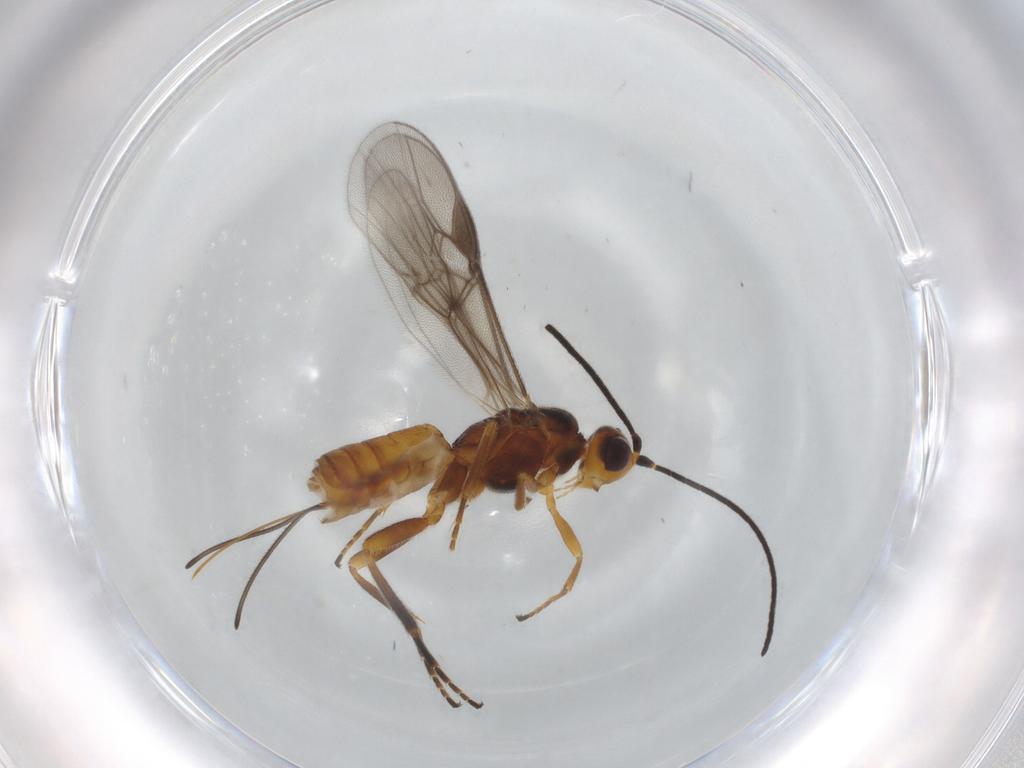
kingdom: Animalia
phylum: Arthropoda
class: Insecta
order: Hymenoptera
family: Braconidae
